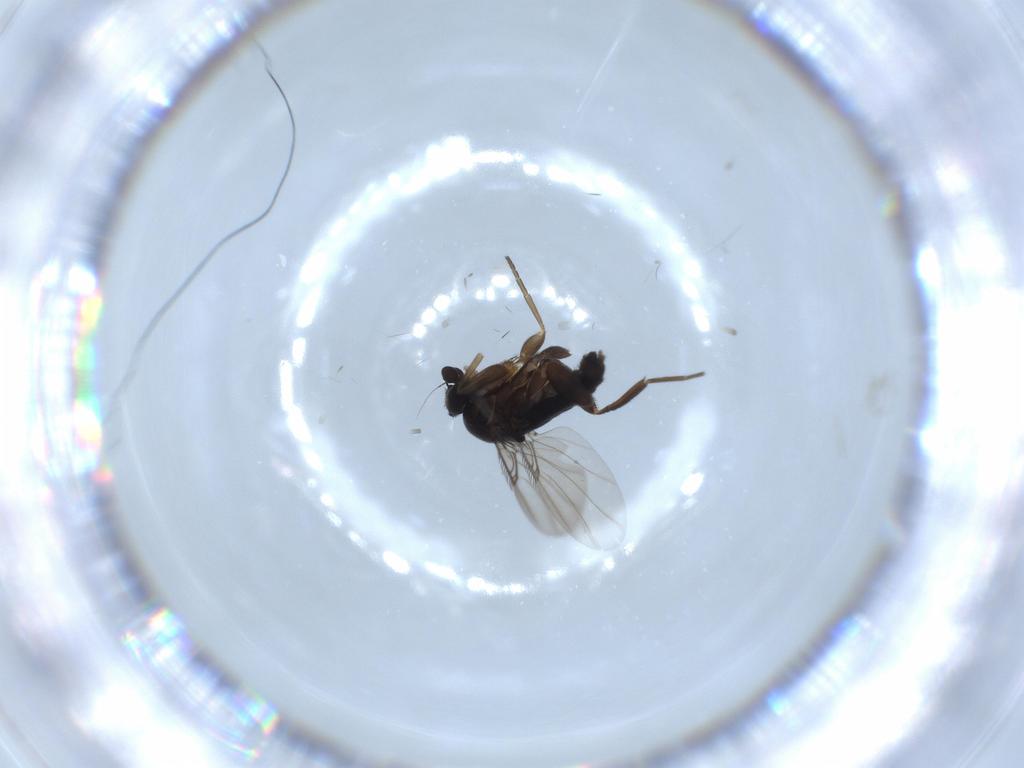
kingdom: Animalia
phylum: Arthropoda
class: Insecta
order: Diptera
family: Phoridae
